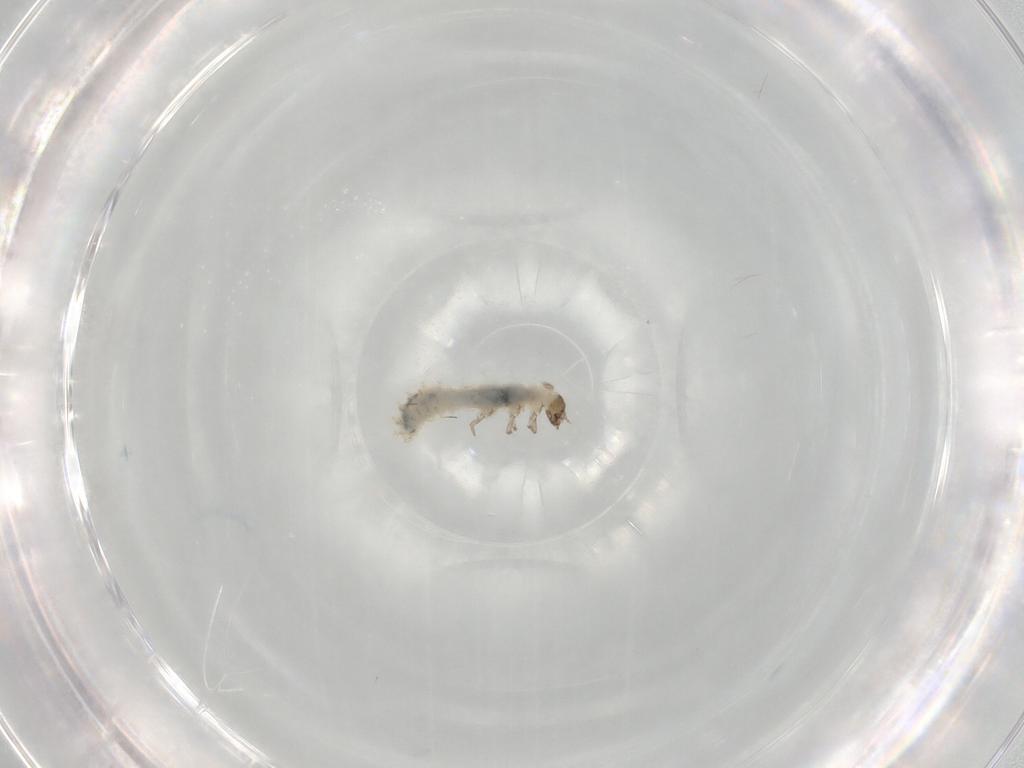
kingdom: Animalia
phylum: Arthropoda
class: Insecta
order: Coleoptera
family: Latridiidae
